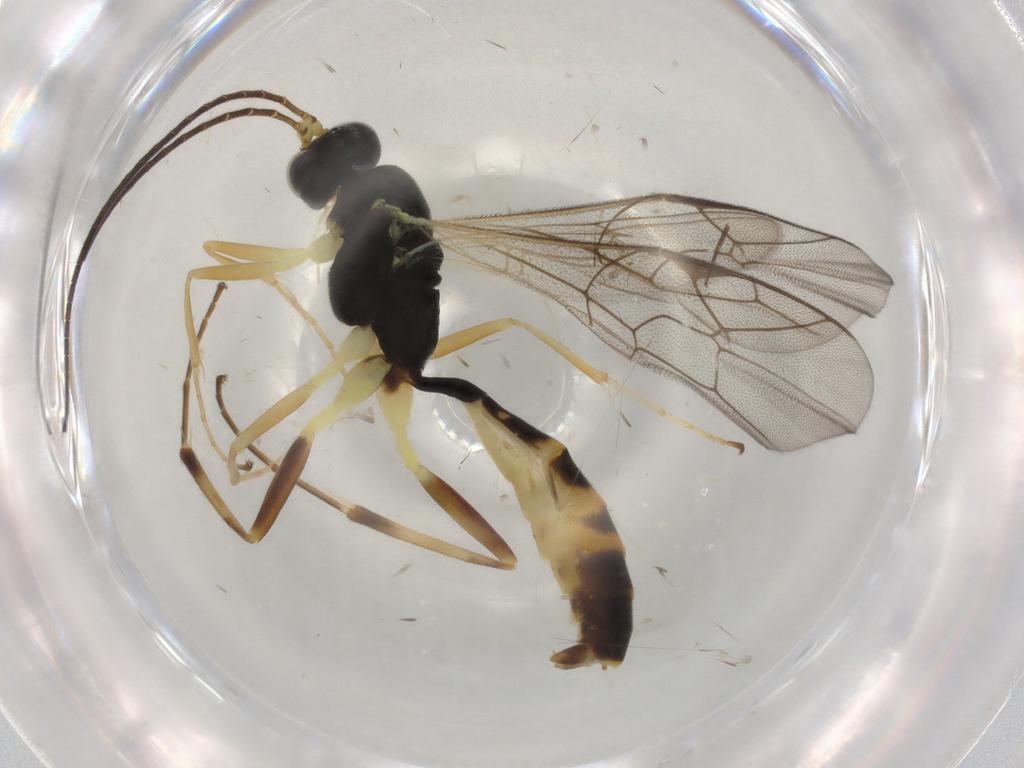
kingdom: Animalia
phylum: Arthropoda
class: Insecta
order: Hymenoptera
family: Ichneumonidae
